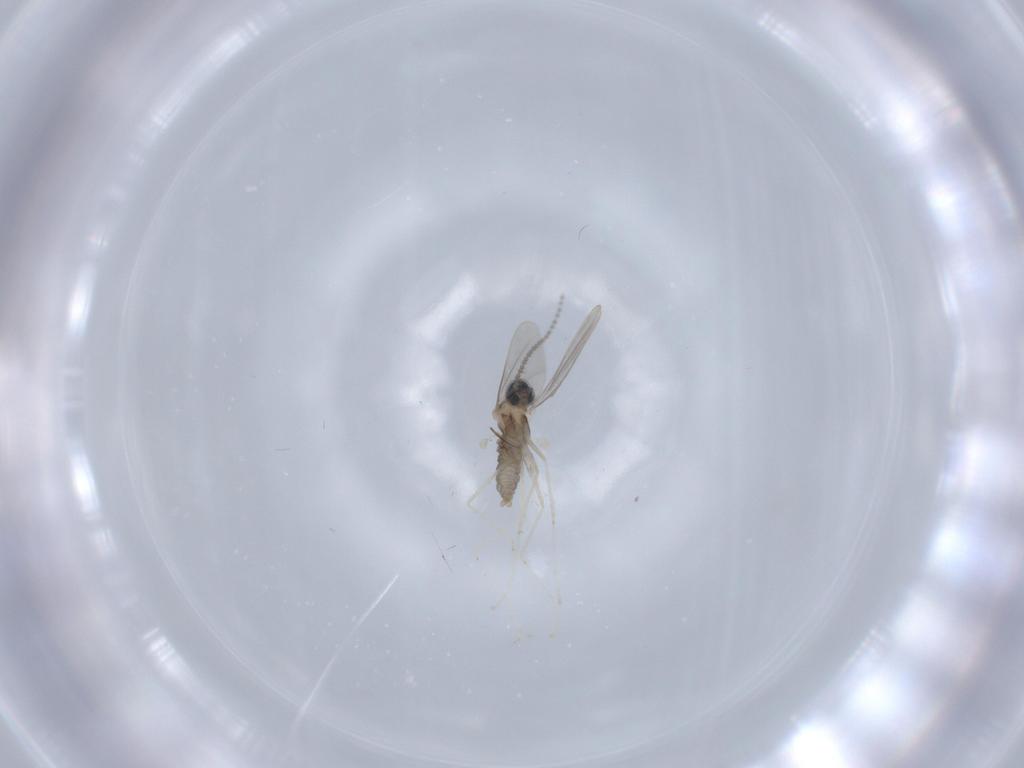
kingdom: Animalia
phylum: Arthropoda
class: Insecta
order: Diptera
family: Cecidomyiidae
